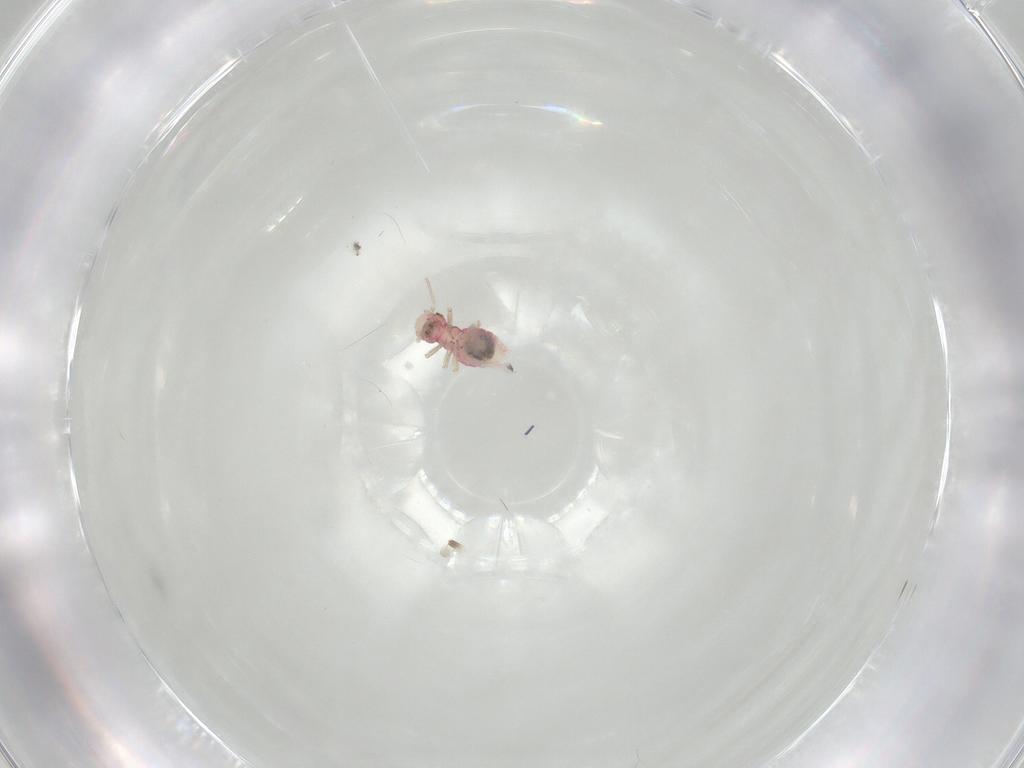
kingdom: Animalia
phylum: Arthropoda
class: Insecta
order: Psocodea
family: Caeciliusidae
